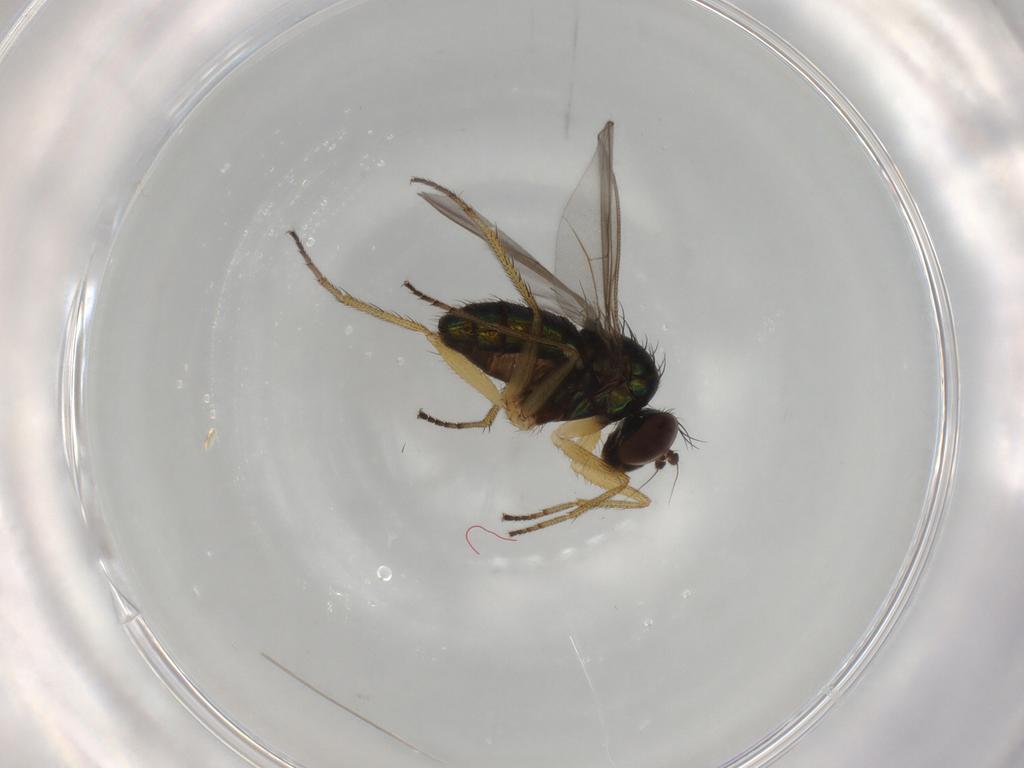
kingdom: Animalia
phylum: Arthropoda
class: Insecta
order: Diptera
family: Dolichopodidae
